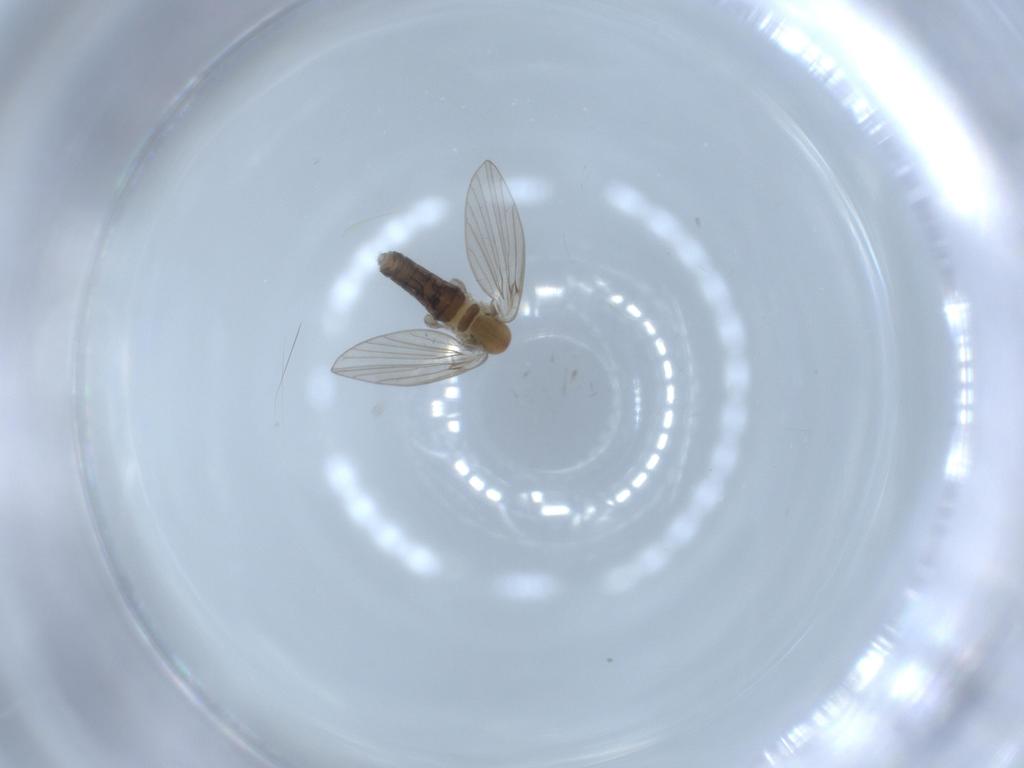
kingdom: Animalia
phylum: Arthropoda
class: Insecta
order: Diptera
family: Psychodidae
